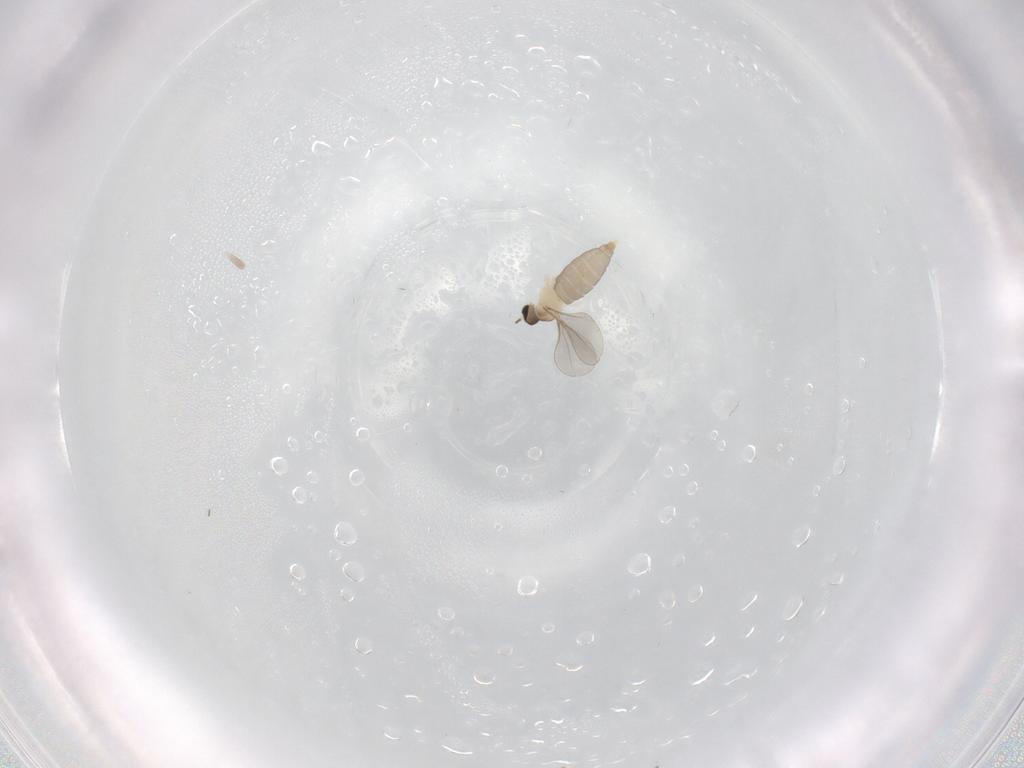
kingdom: Animalia
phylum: Arthropoda
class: Insecta
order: Diptera
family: Cecidomyiidae
